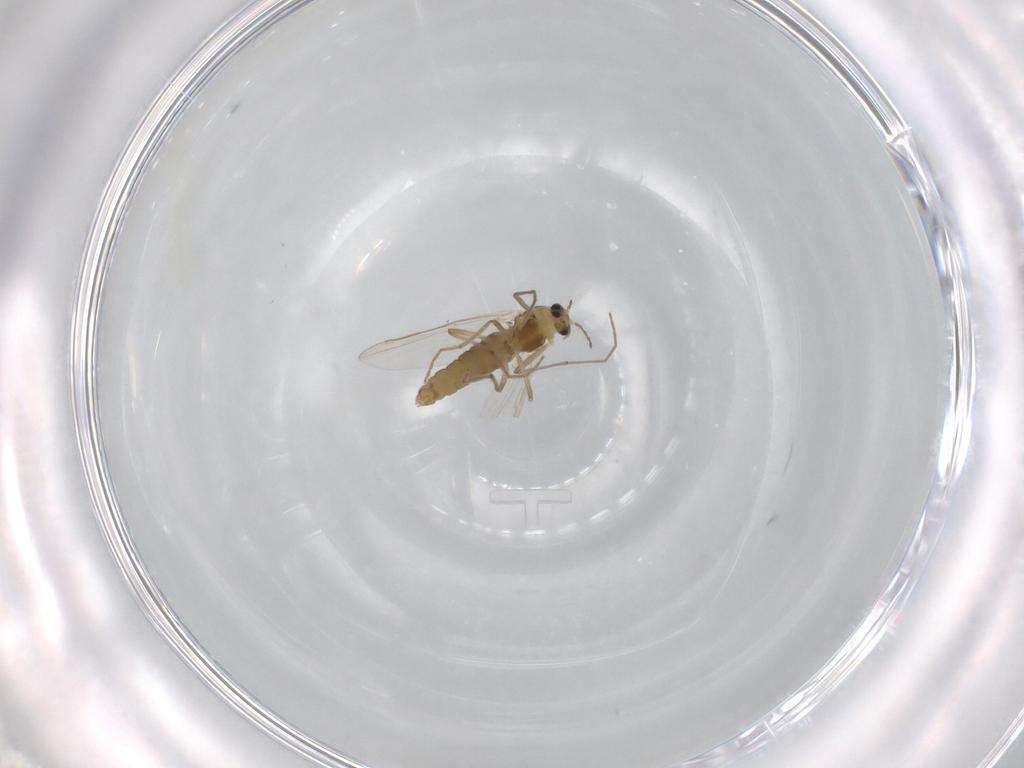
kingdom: Animalia
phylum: Arthropoda
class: Insecta
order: Diptera
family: Chironomidae
